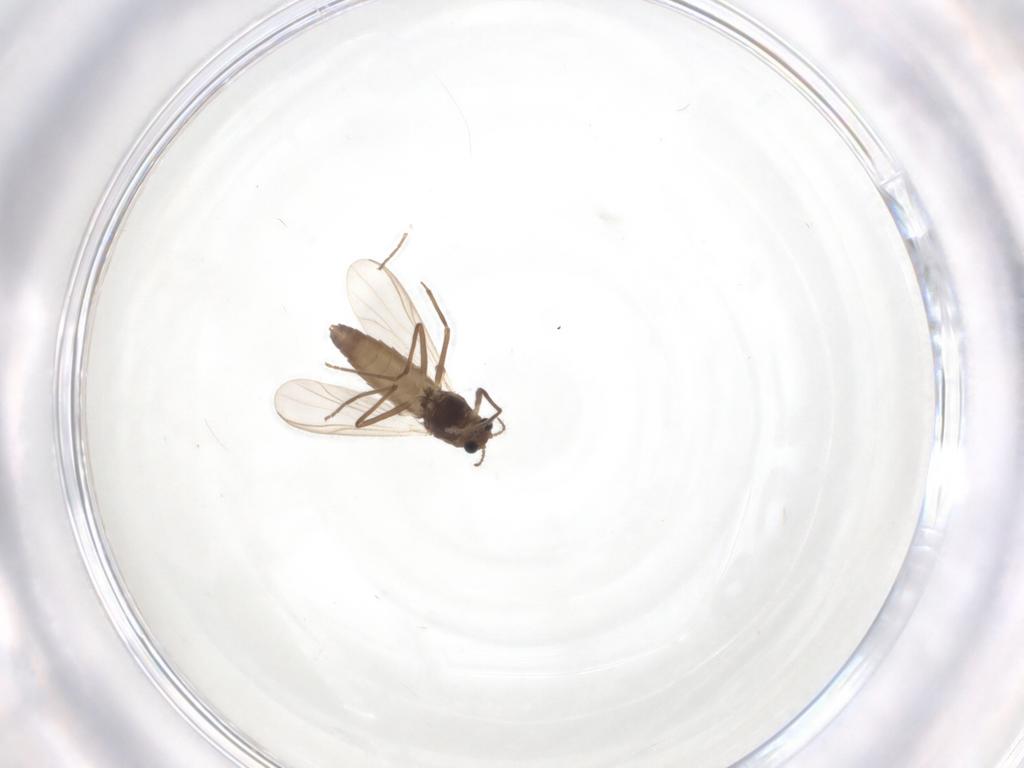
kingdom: Animalia
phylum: Arthropoda
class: Insecta
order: Diptera
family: Chironomidae
